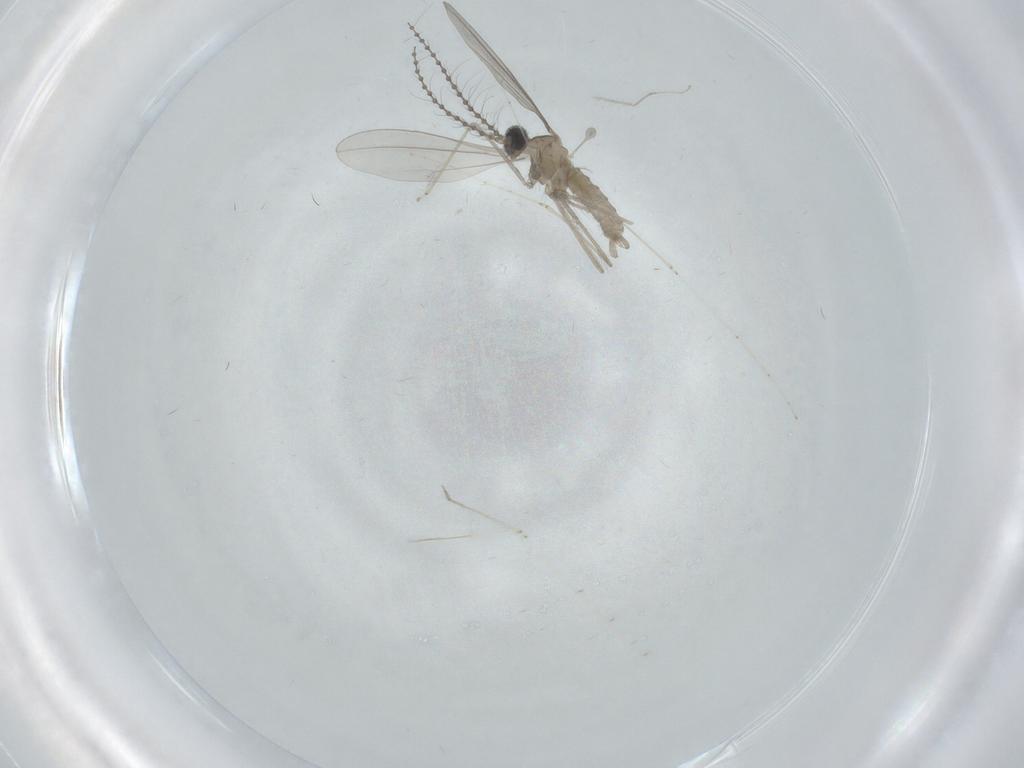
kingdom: Animalia
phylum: Arthropoda
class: Insecta
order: Diptera
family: Cecidomyiidae
